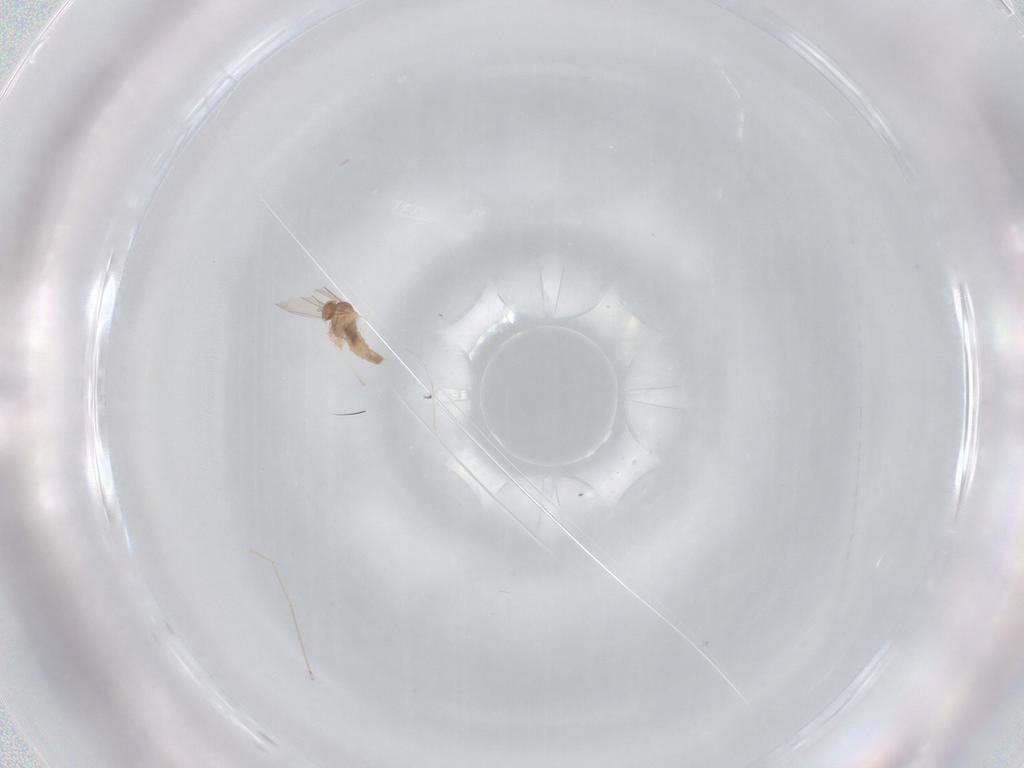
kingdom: Animalia
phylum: Arthropoda
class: Insecta
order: Diptera
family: Cecidomyiidae
